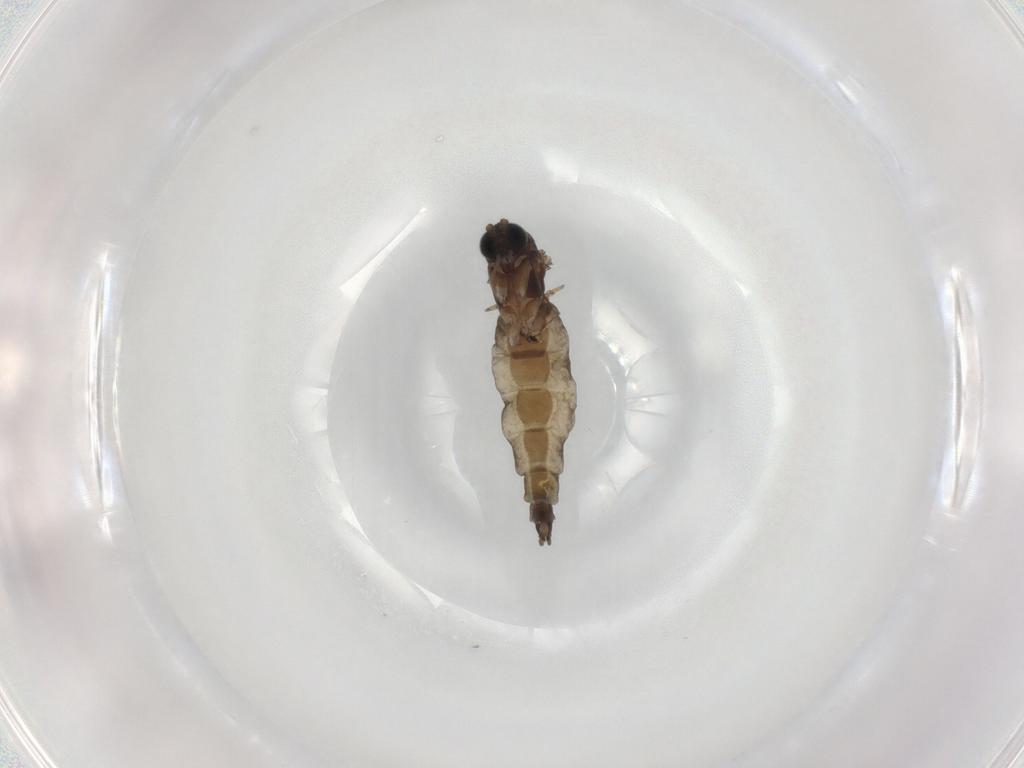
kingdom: Animalia
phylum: Arthropoda
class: Insecta
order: Diptera
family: Sciaridae
